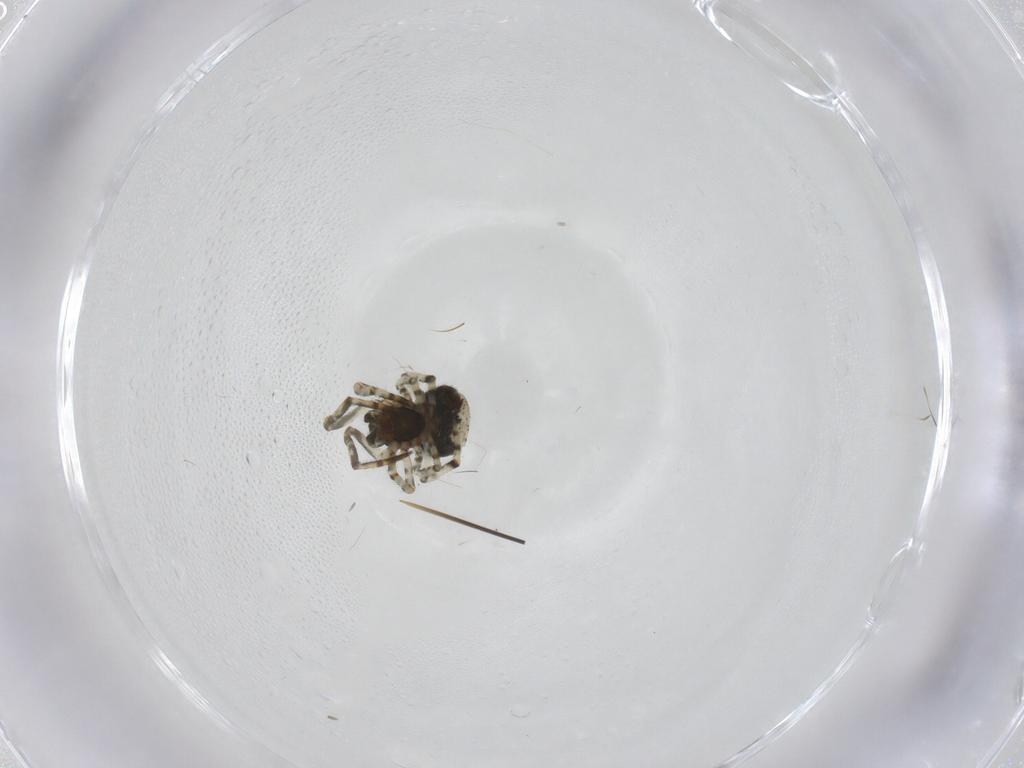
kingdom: Animalia
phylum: Arthropoda
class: Arachnida
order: Araneae
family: Theridiidae
